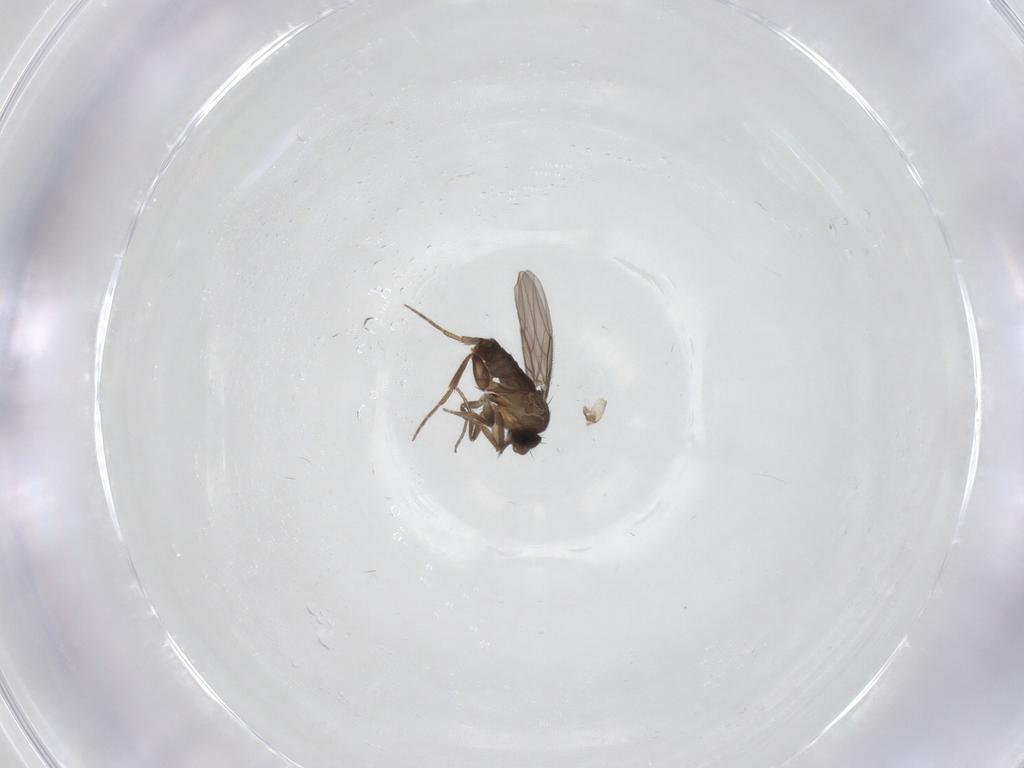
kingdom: Animalia
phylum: Arthropoda
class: Insecta
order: Diptera
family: Phoridae
